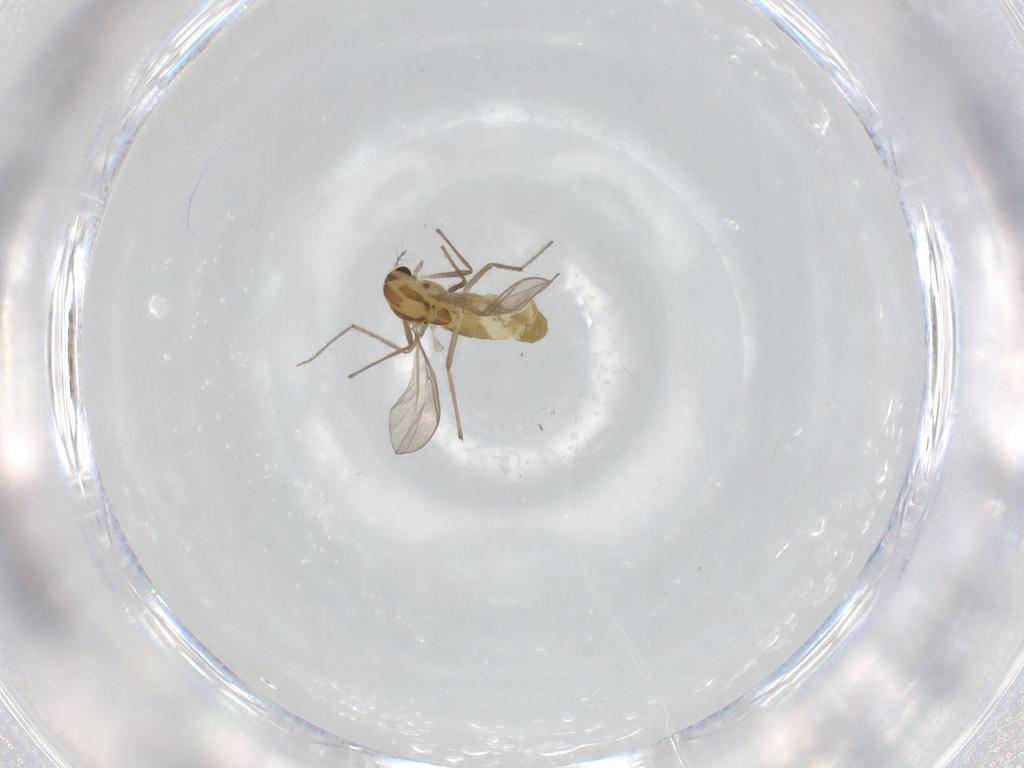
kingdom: Animalia
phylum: Arthropoda
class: Insecta
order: Diptera
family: Chironomidae
